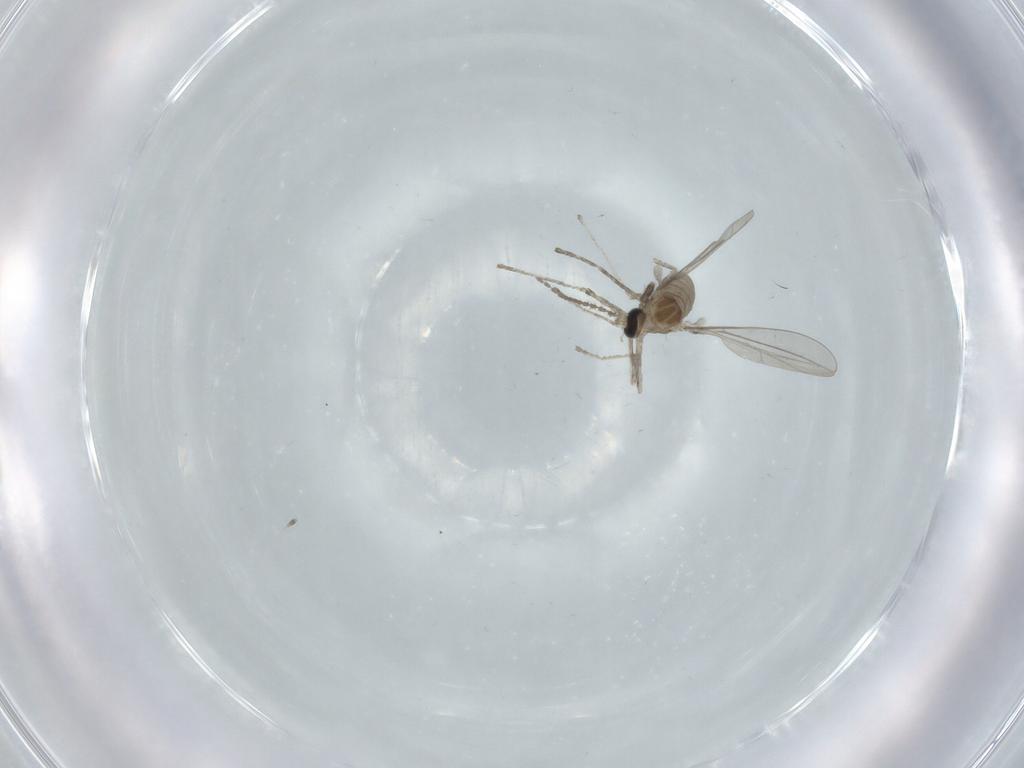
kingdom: Animalia
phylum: Arthropoda
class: Insecta
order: Diptera
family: Cecidomyiidae
